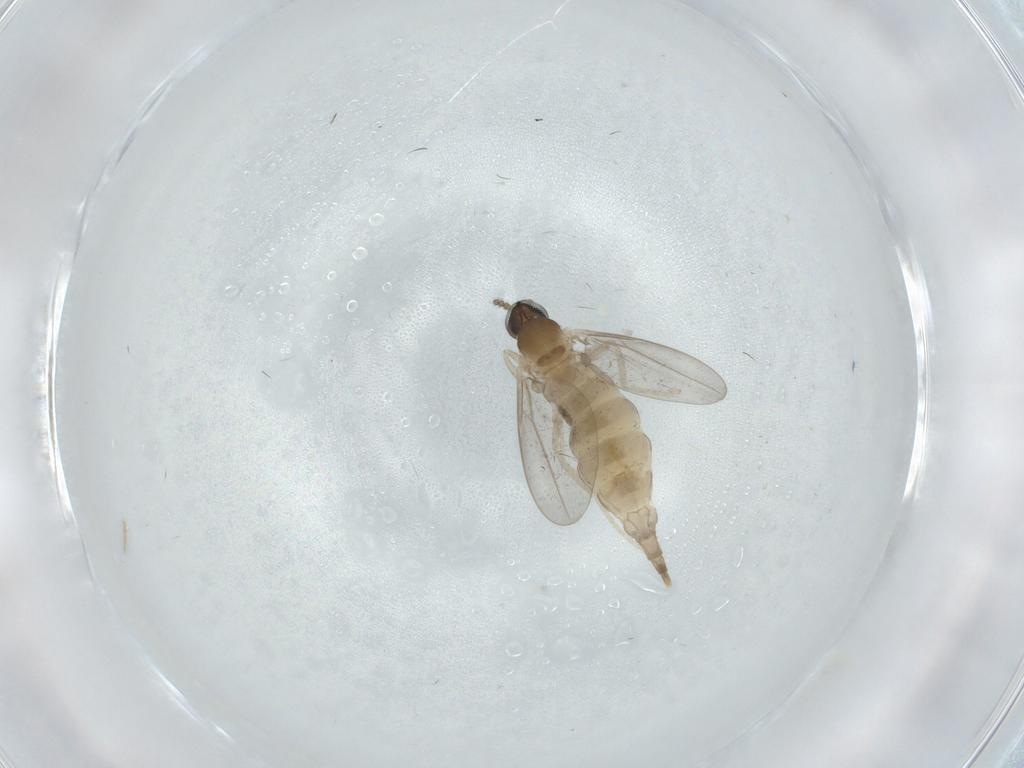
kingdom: Animalia
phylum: Arthropoda
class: Insecta
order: Diptera
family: Cecidomyiidae
